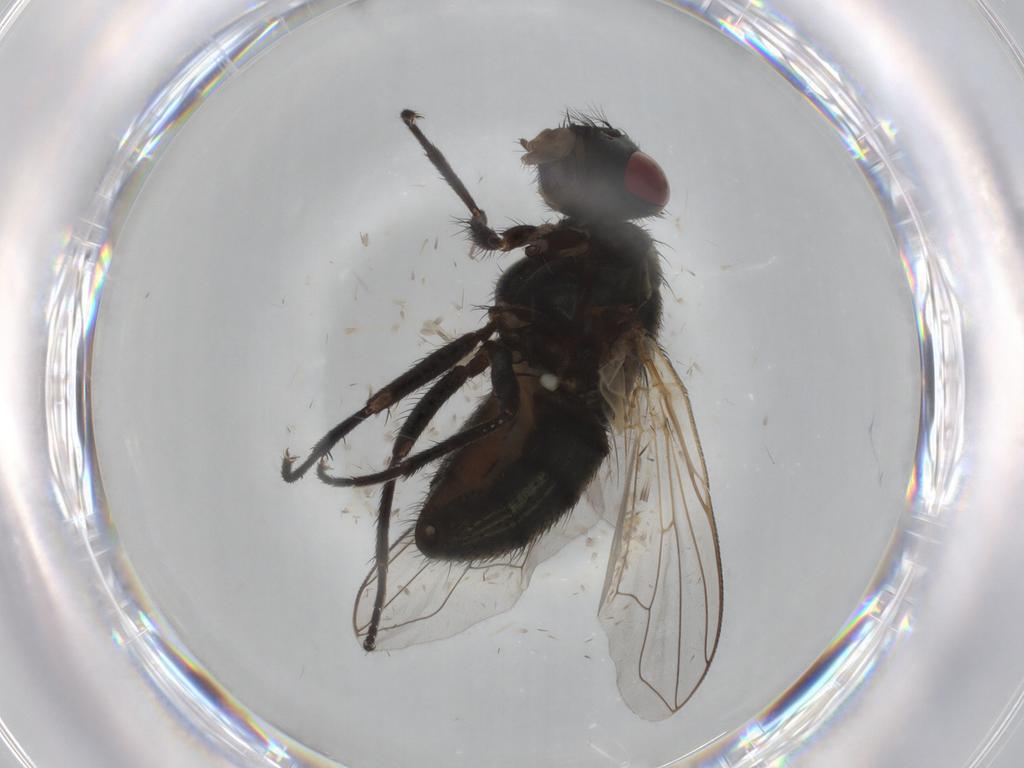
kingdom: Animalia
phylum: Arthropoda
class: Insecta
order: Diptera
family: Muscidae
